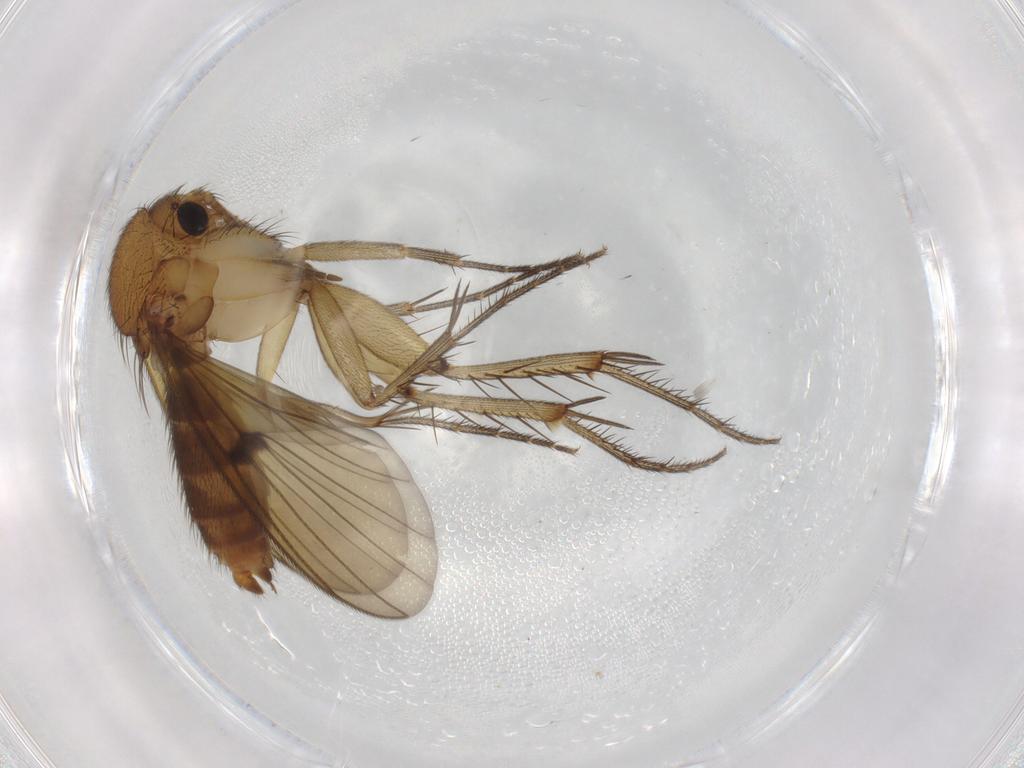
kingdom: Animalia
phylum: Arthropoda
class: Insecta
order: Diptera
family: Mycetophilidae
